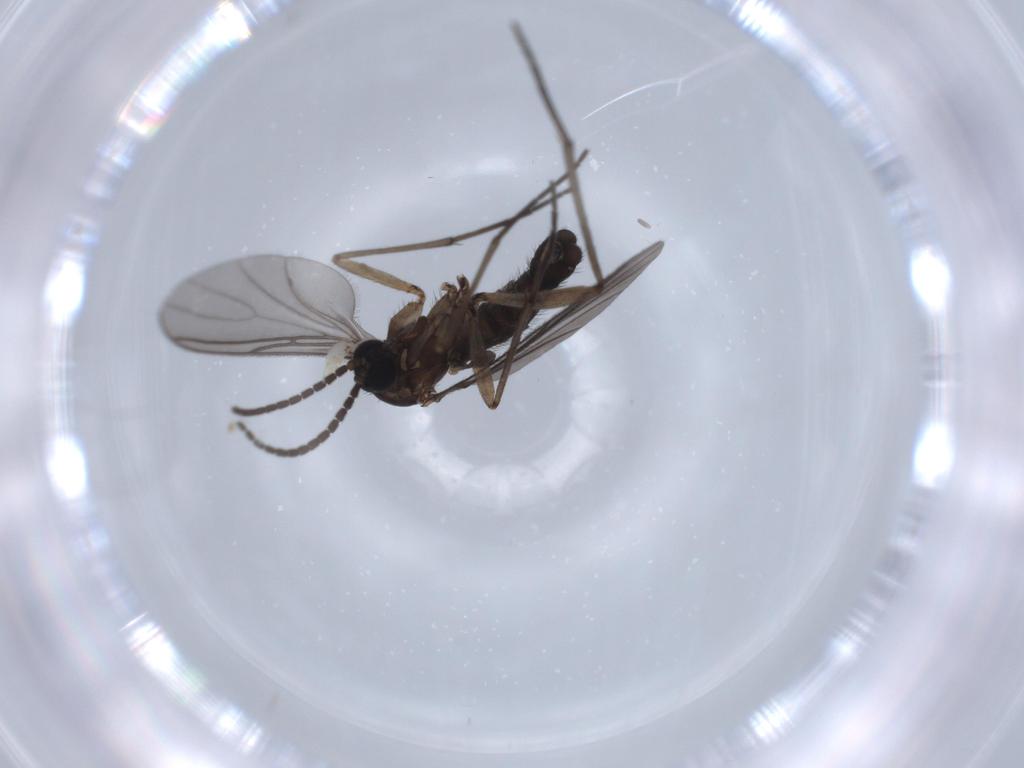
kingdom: Animalia
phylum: Arthropoda
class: Insecta
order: Diptera
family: Sciaridae
